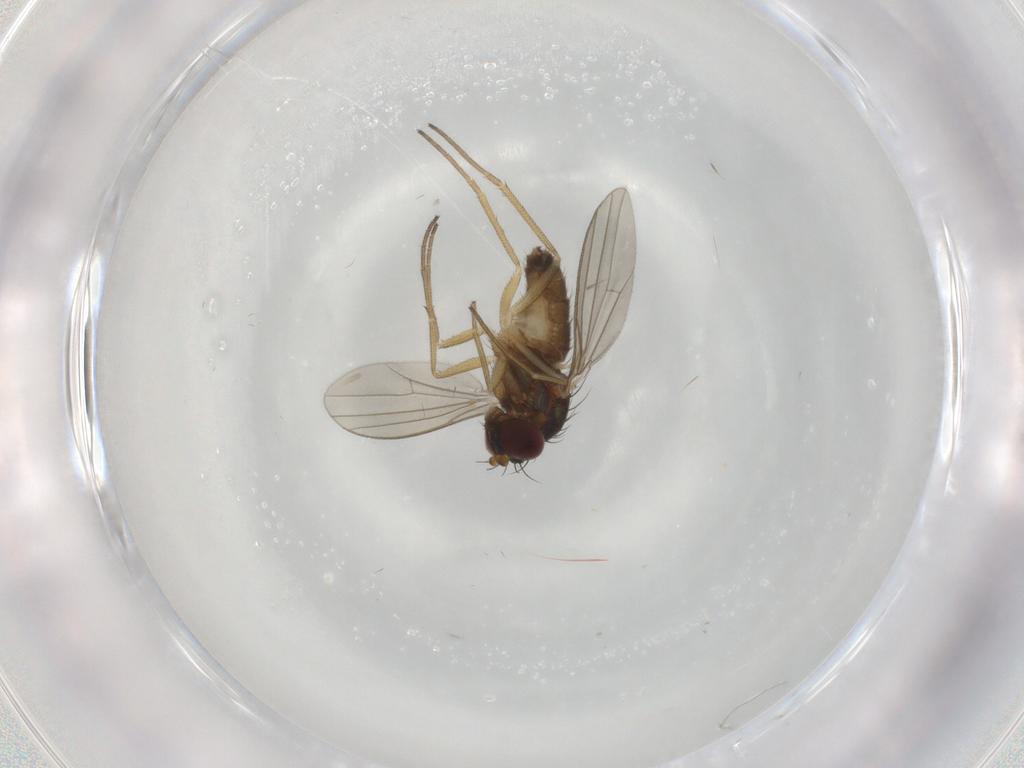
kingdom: Animalia
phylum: Arthropoda
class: Insecta
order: Diptera
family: Dolichopodidae
